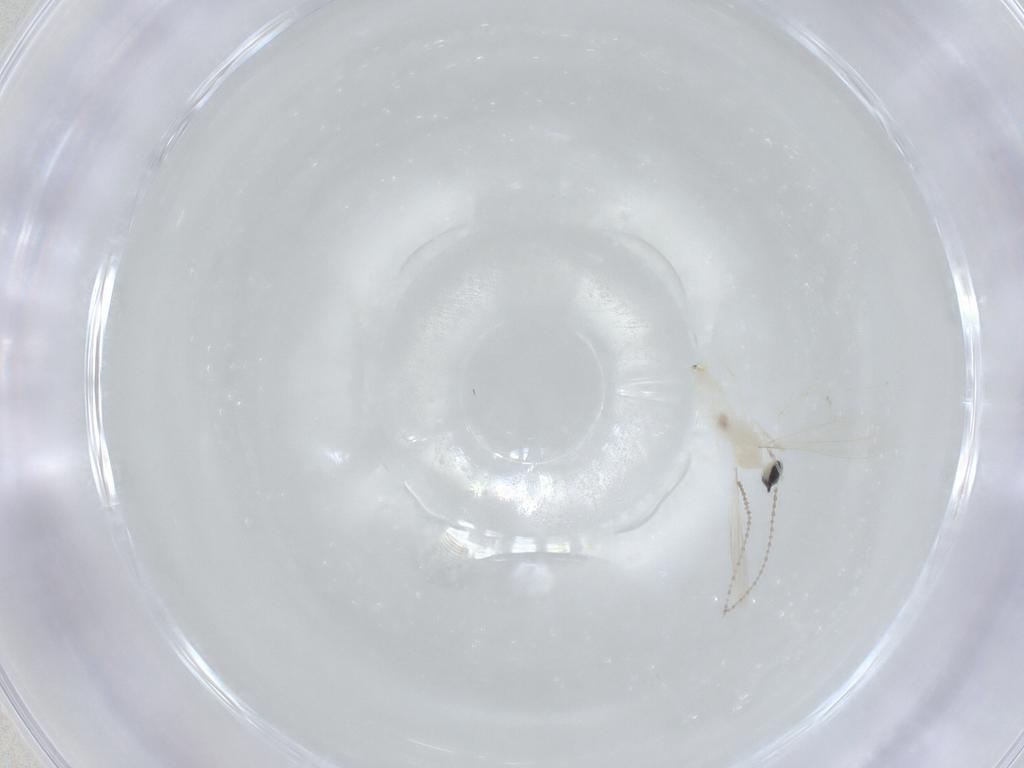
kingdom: Animalia
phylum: Arthropoda
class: Insecta
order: Diptera
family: Phoridae
